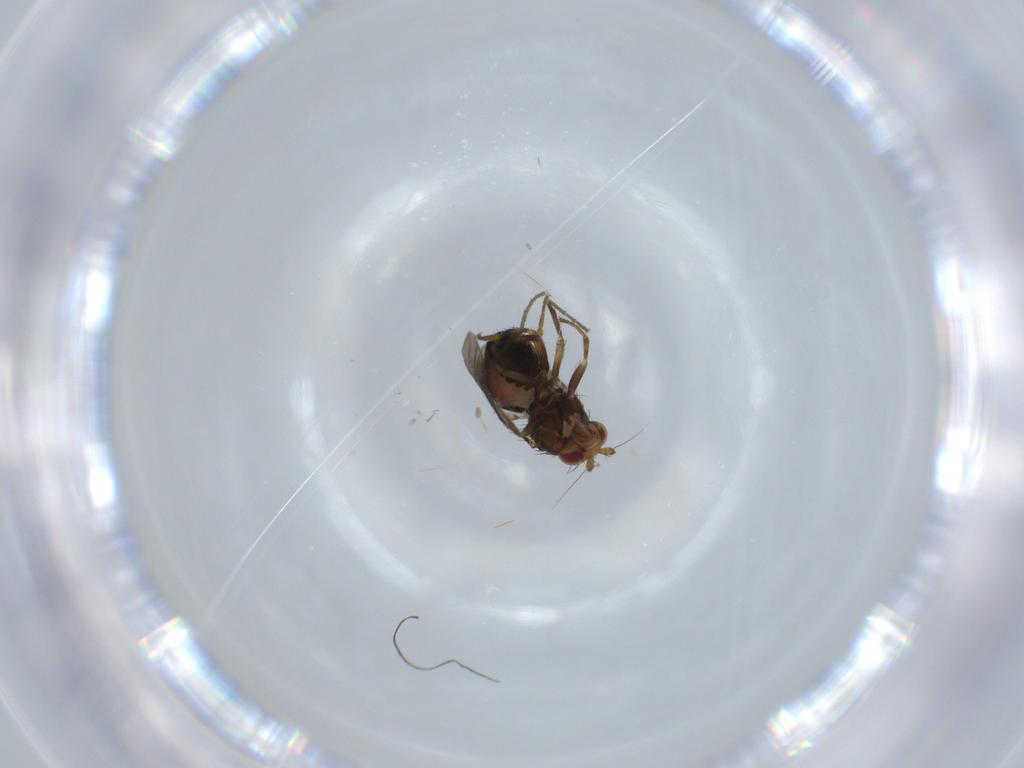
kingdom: Animalia
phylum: Arthropoda
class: Insecta
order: Diptera
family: Sphaeroceridae
